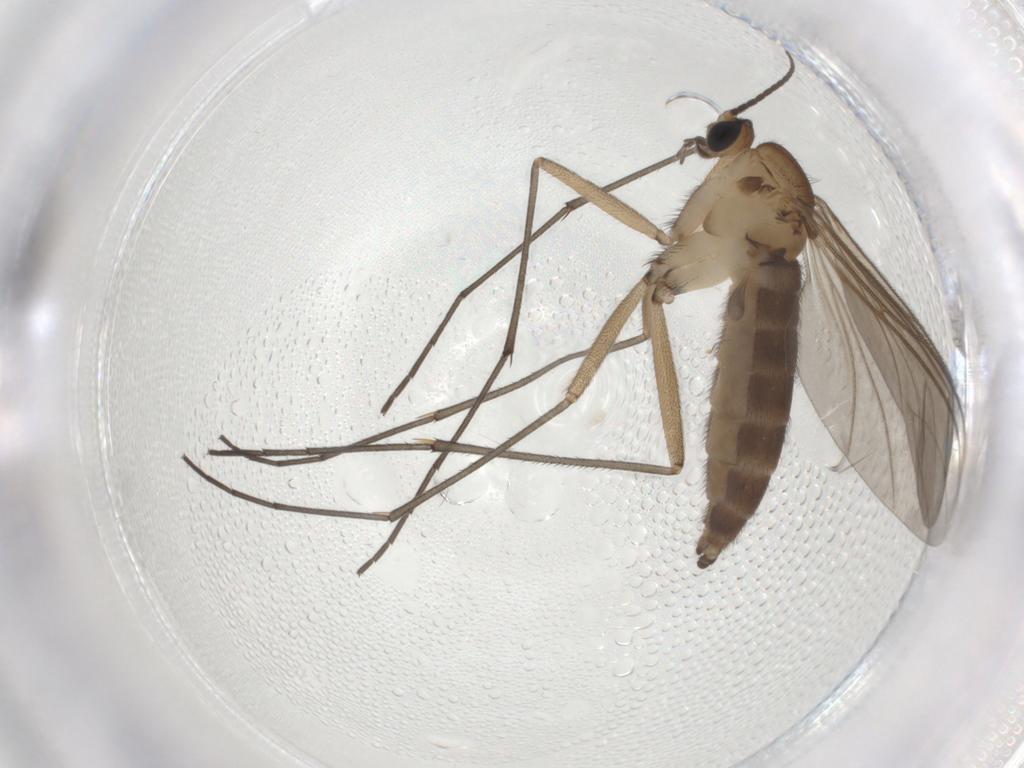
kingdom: Animalia
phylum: Arthropoda
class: Insecta
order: Diptera
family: Sciaridae
